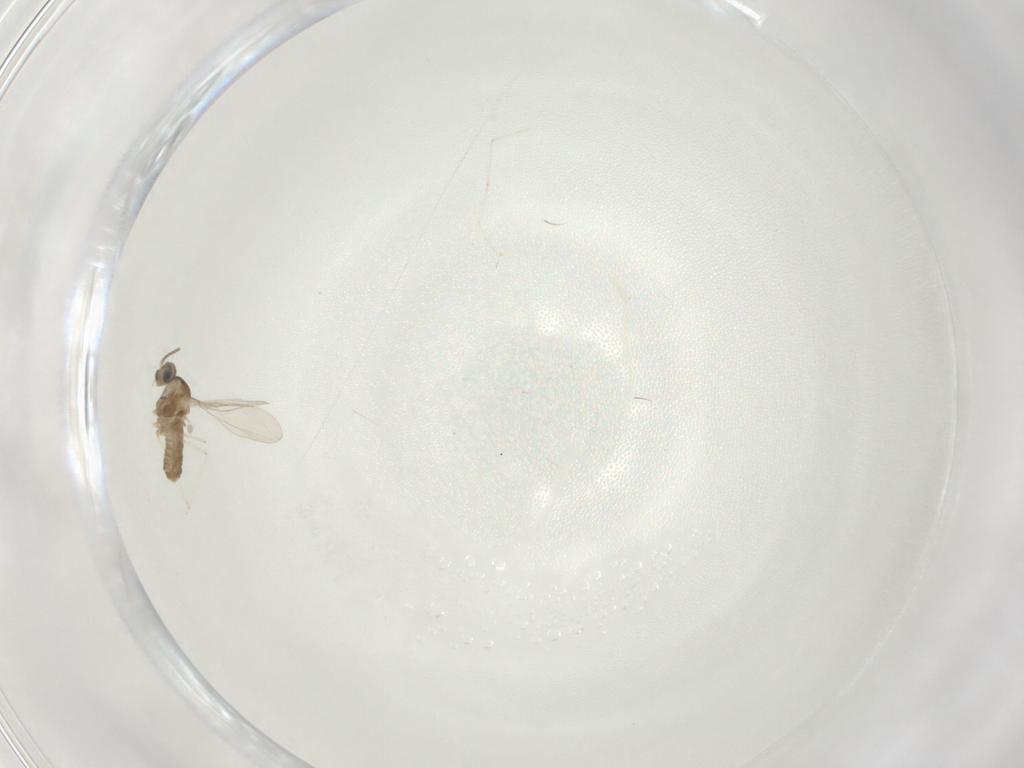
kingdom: Animalia
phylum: Arthropoda
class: Insecta
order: Diptera
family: Cecidomyiidae
